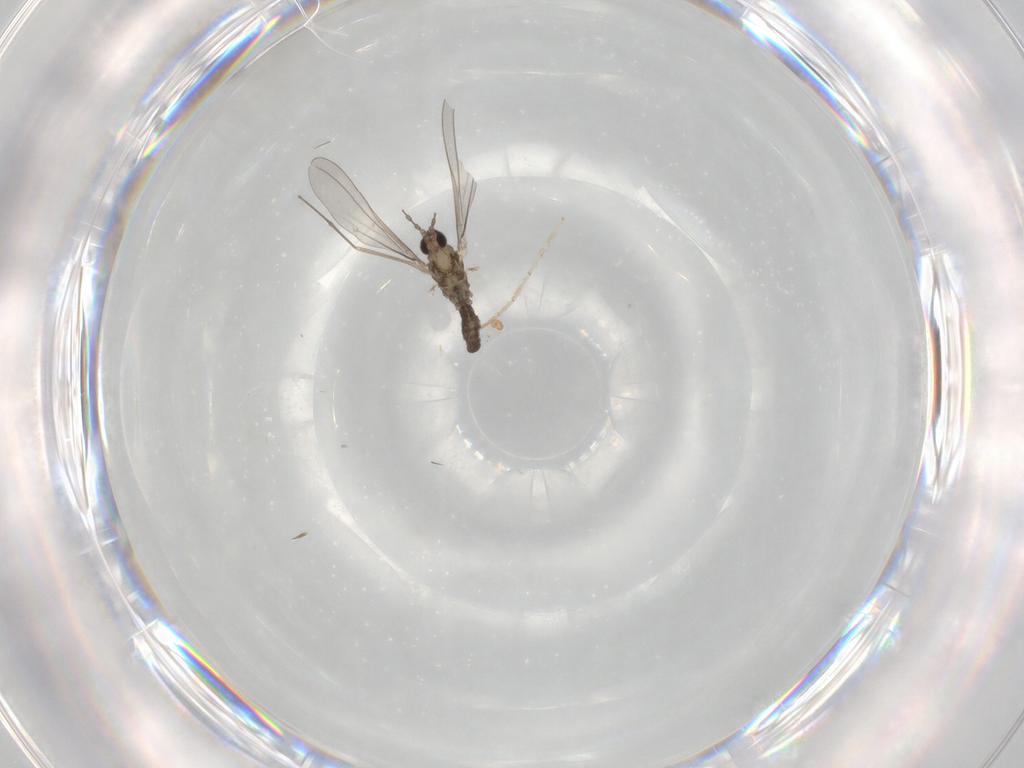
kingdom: Animalia
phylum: Arthropoda
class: Insecta
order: Diptera
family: Cecidomyiidae
